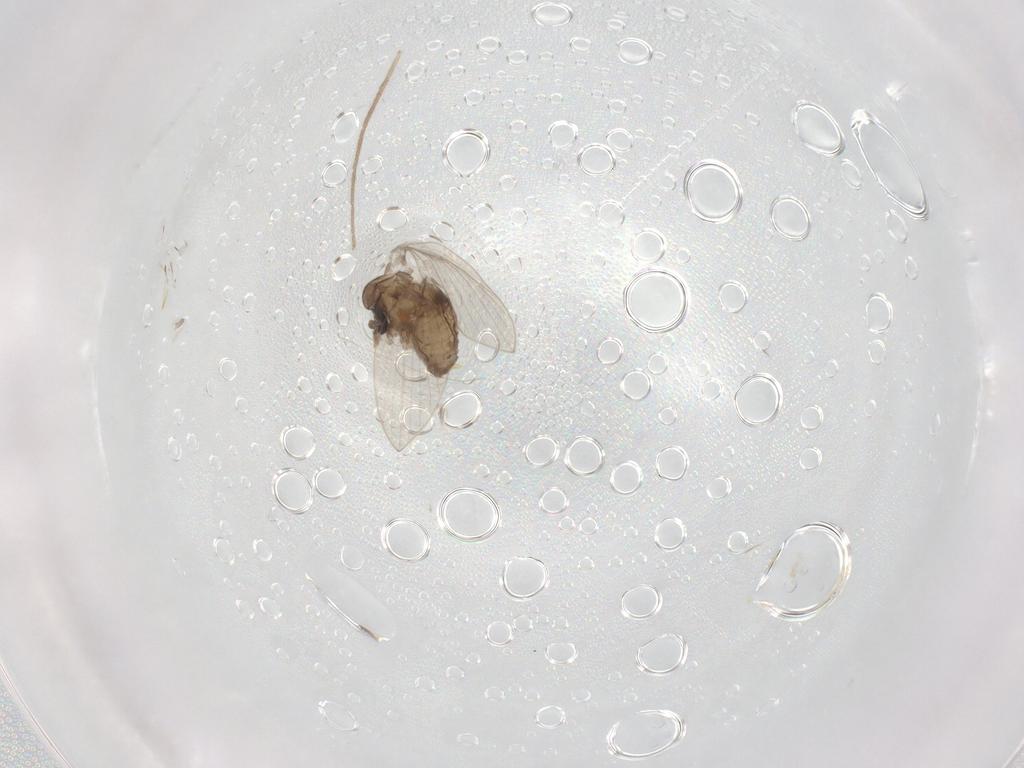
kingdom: Animalia
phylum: Arthropoda
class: Insecta
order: Diptera
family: Psychodidae
